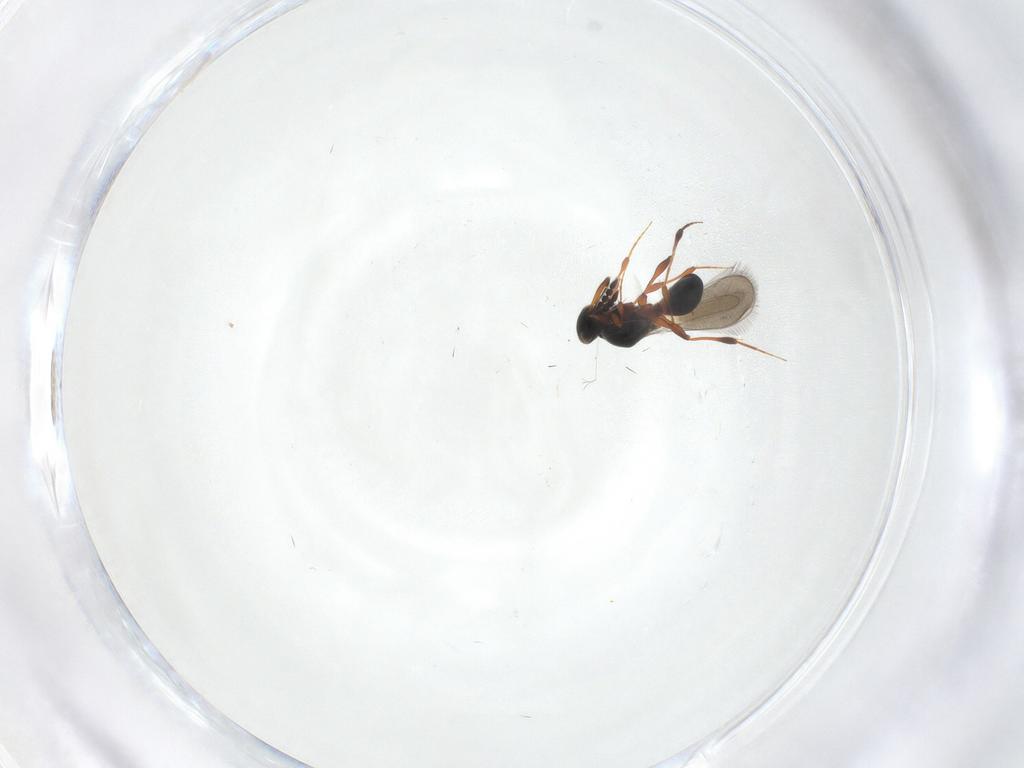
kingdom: Animalia
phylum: Arthropoda
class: Insecta
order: Hymenoptera
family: Platygastridae
